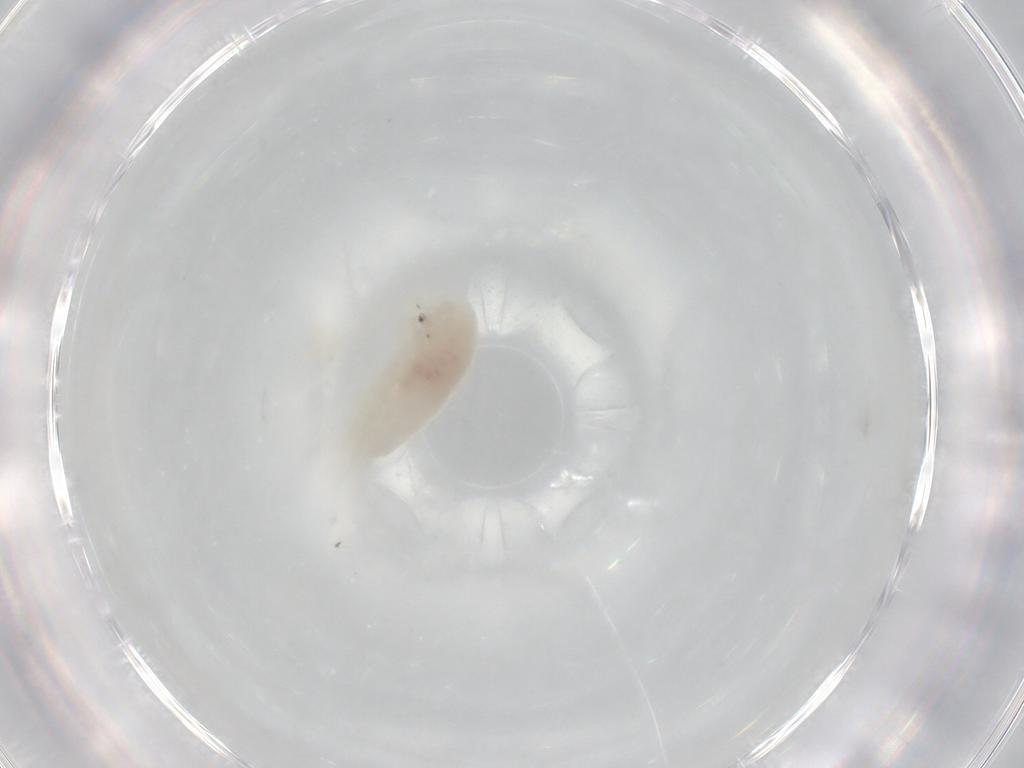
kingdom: Animalia
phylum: Arthropoda
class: Copepoda
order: Calanoida
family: Diaptomidae
